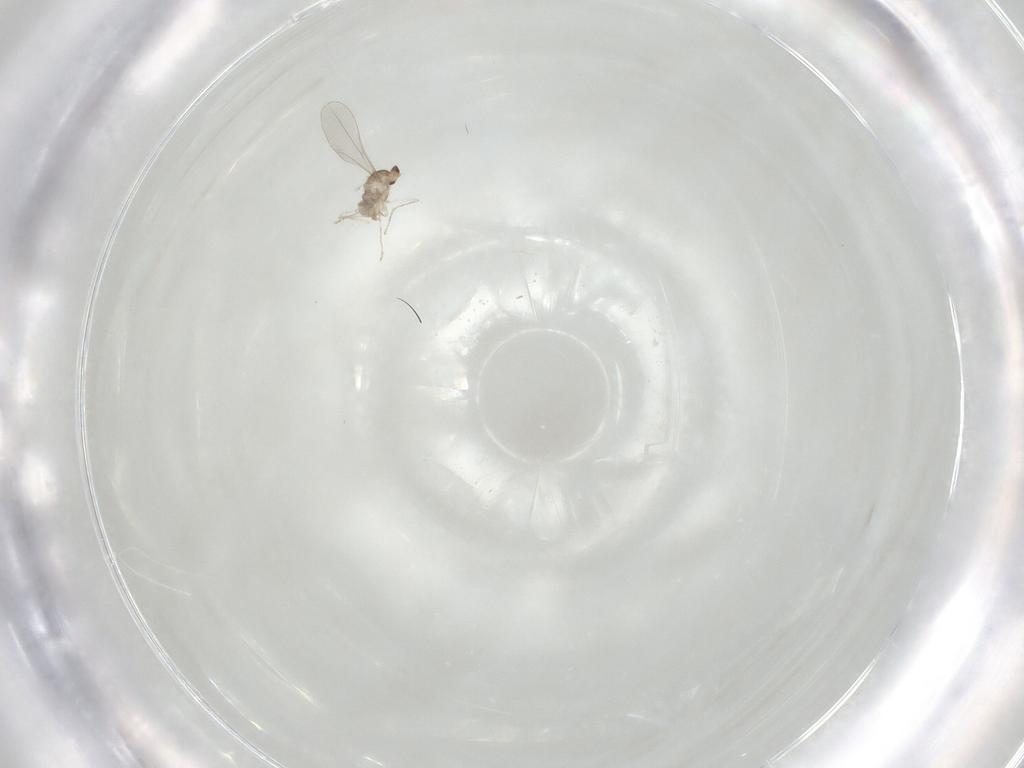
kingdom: Animalia
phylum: Arthropoda
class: Insecta
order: Diptera
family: Cecidomyiidae
